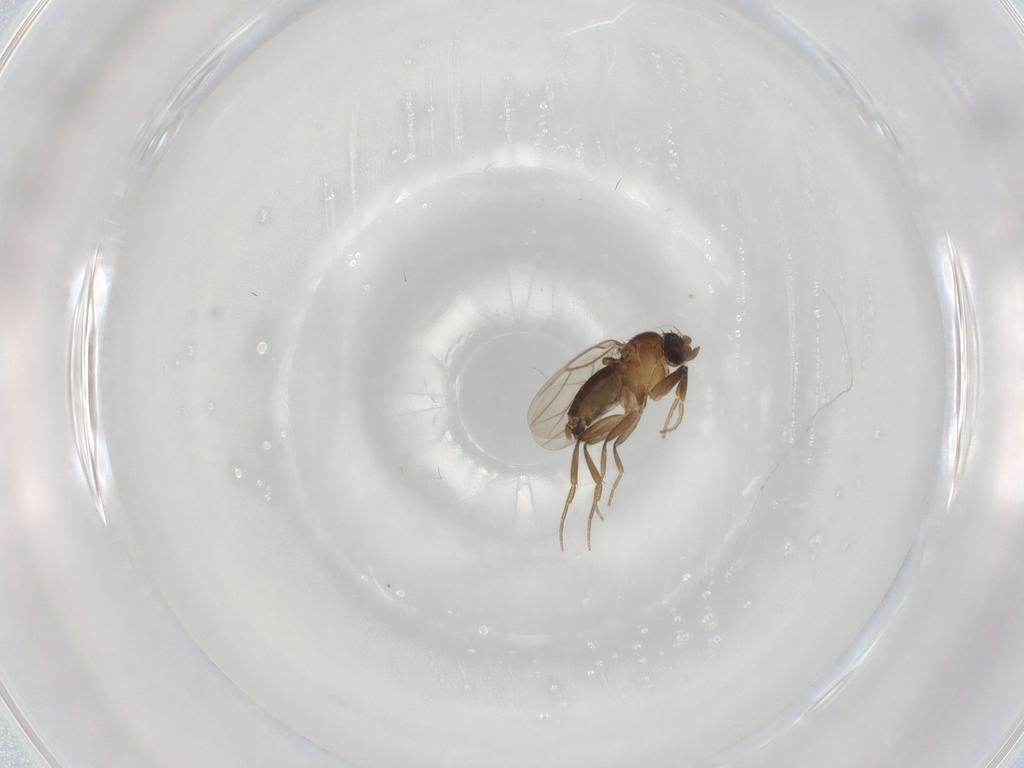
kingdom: Animalia
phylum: Arthropoda
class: Insecta
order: Diptera
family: Phoridae
